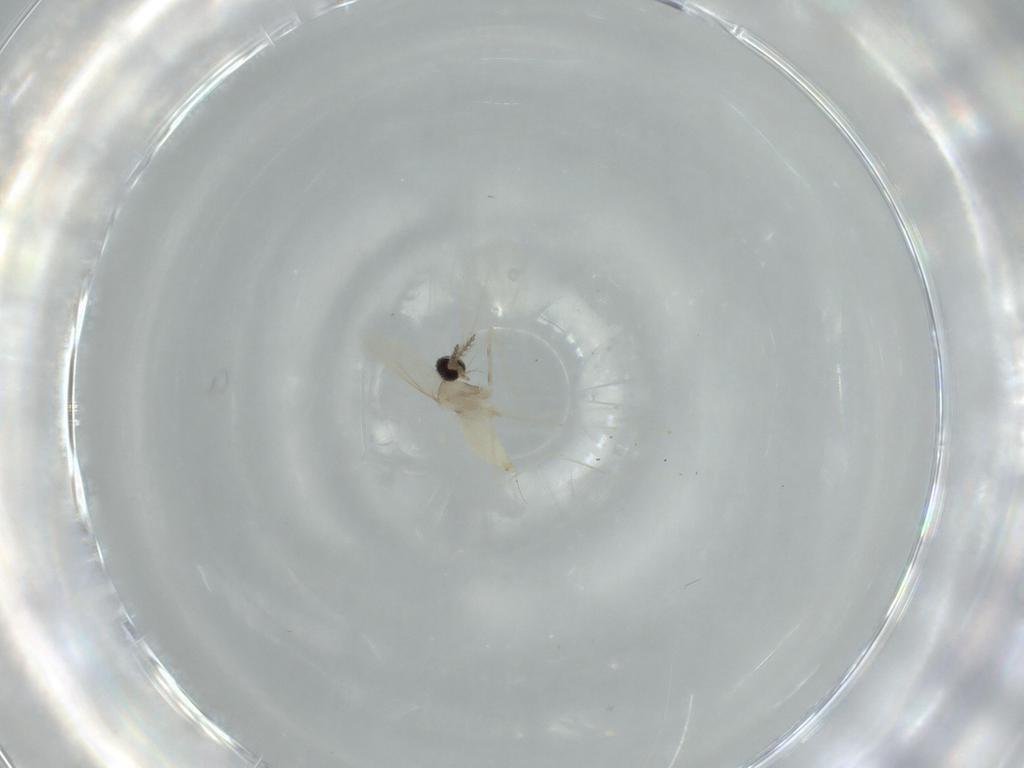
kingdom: Animalia
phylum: Arthropoda
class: Insecta
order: Diptera
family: Cecidomyiidae
